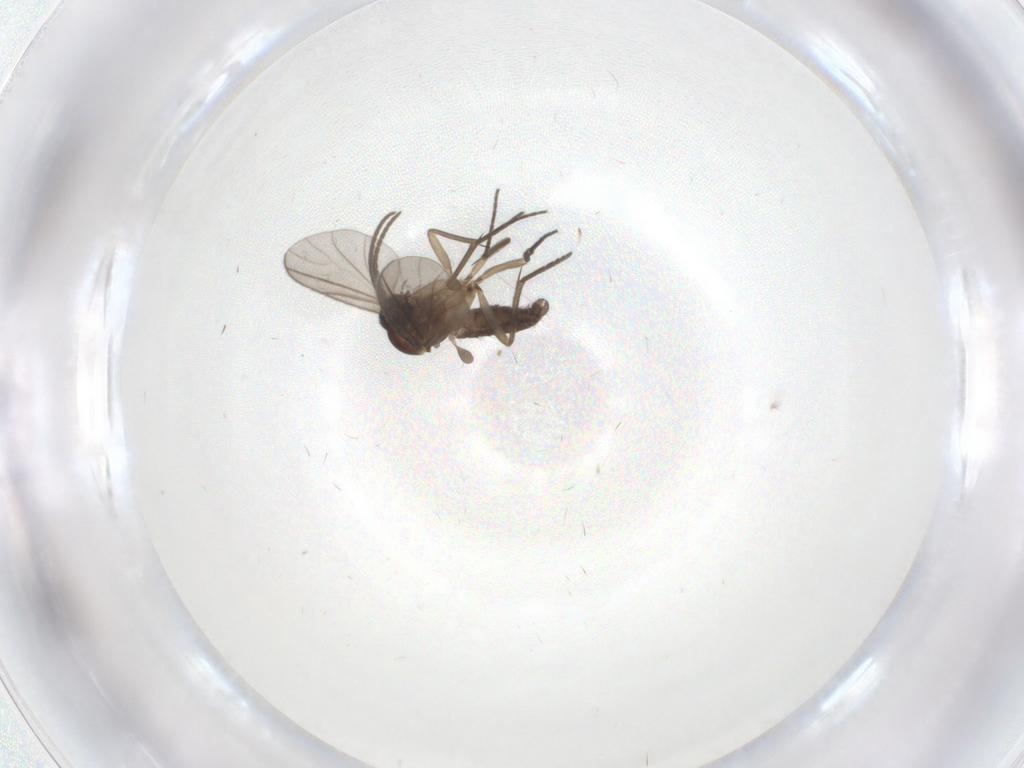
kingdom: Animalia
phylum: Arthropoda
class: Insecta
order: Diptera
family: Sciaridae
